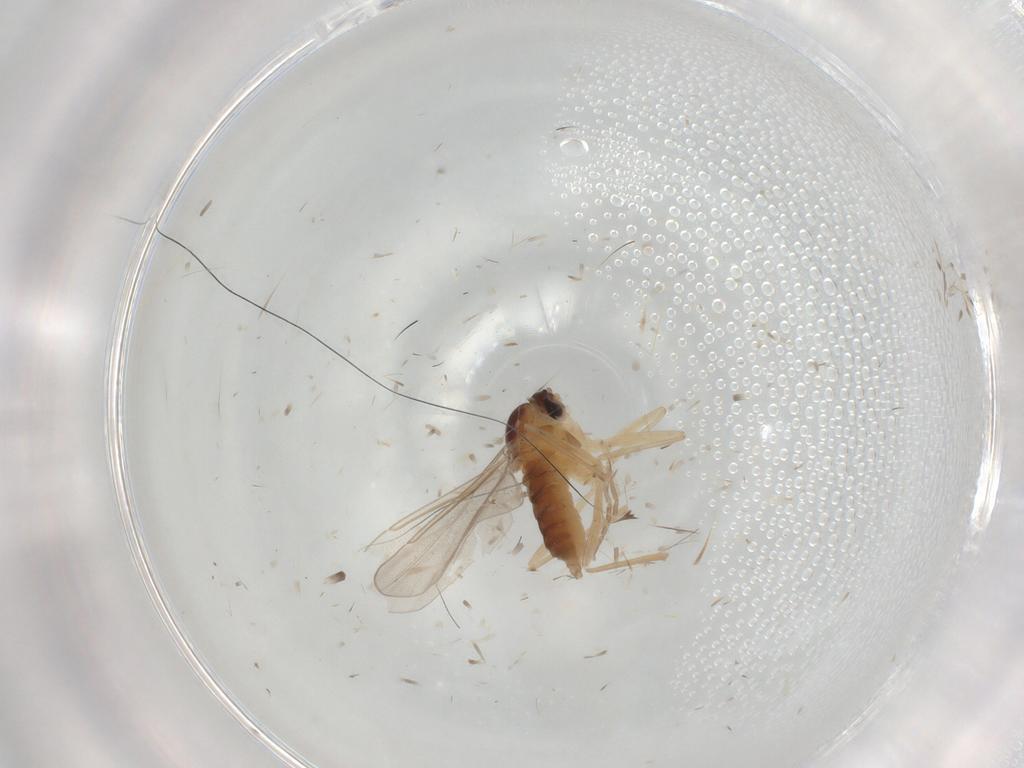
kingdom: Animalia
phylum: Arthropoda
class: Insecta
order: Diptera
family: Cecidomyiidae
